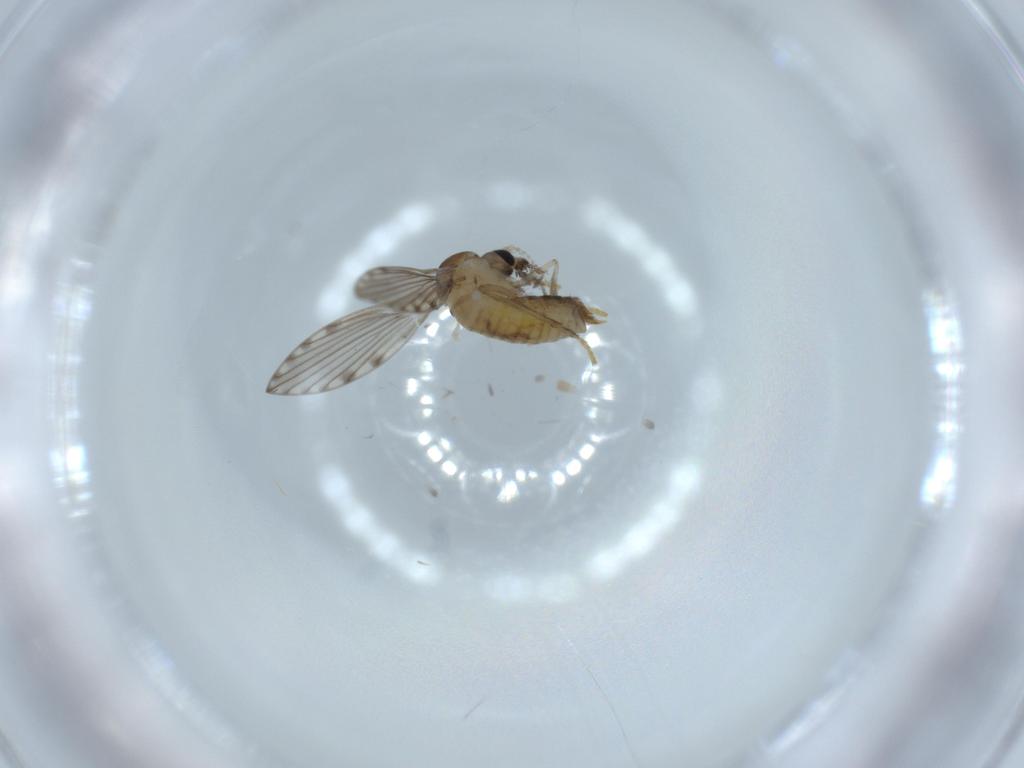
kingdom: Animalia
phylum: Arthropoda
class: Insecta
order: Diptera
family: Psychodidae
